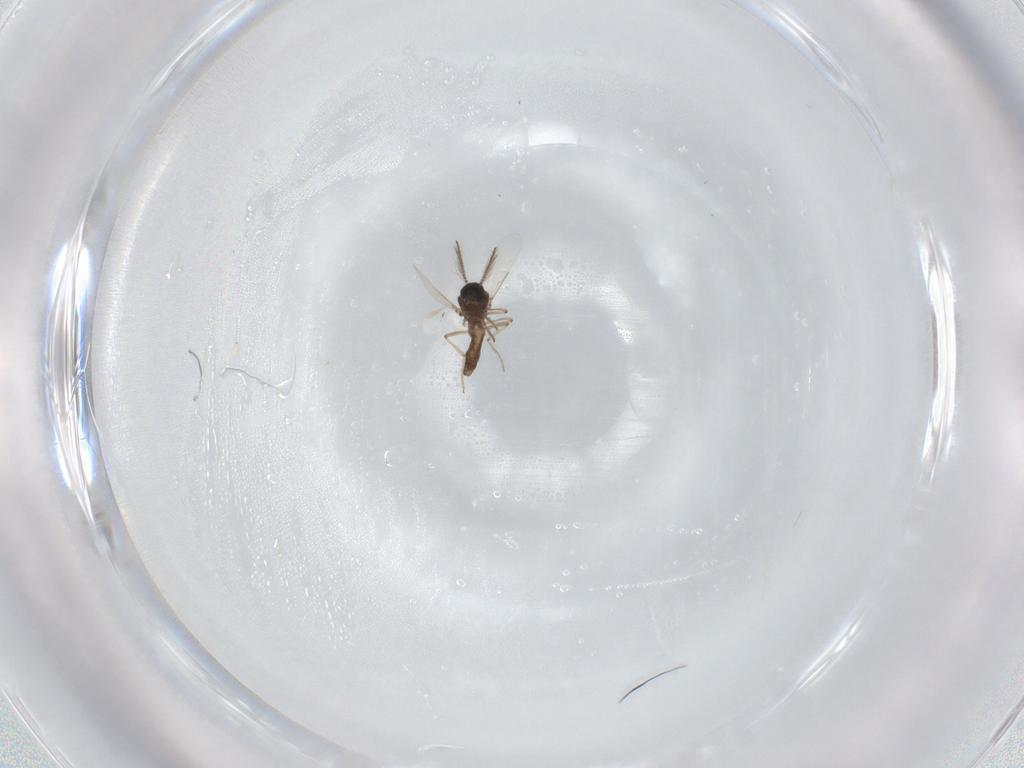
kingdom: Animalia
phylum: Arthropoda
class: Insecta
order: Diptera
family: Ceratopogonidae
